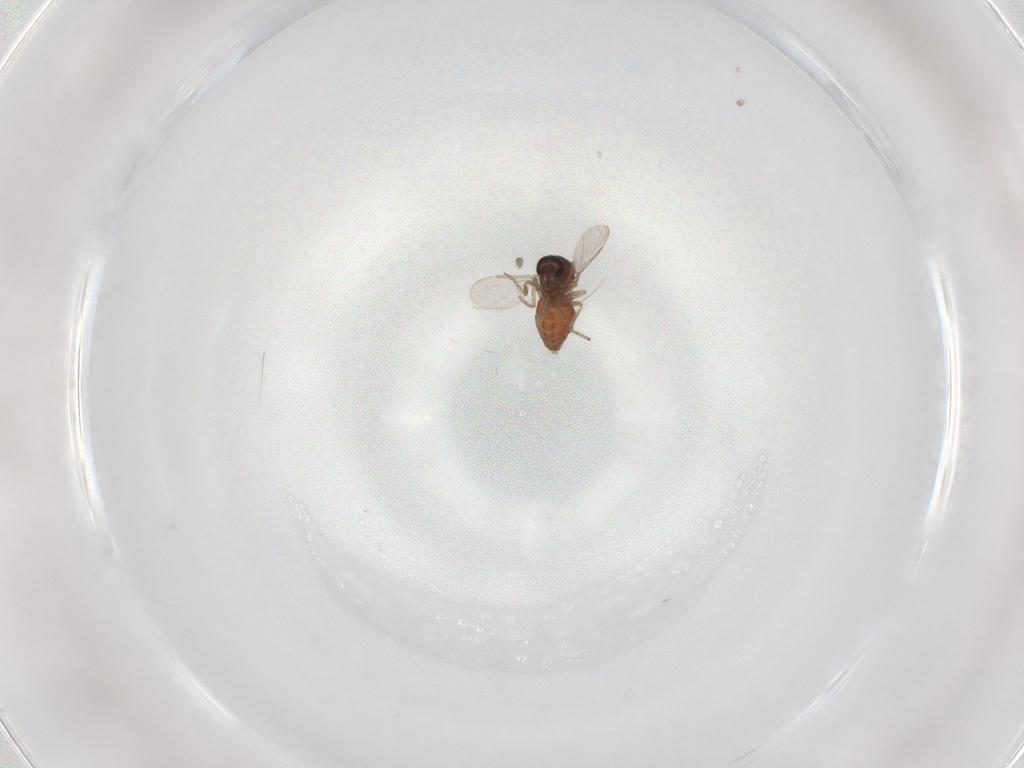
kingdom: Animalia
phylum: Arthropoda
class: Insecta
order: Diptera
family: Ceratopogonidae
